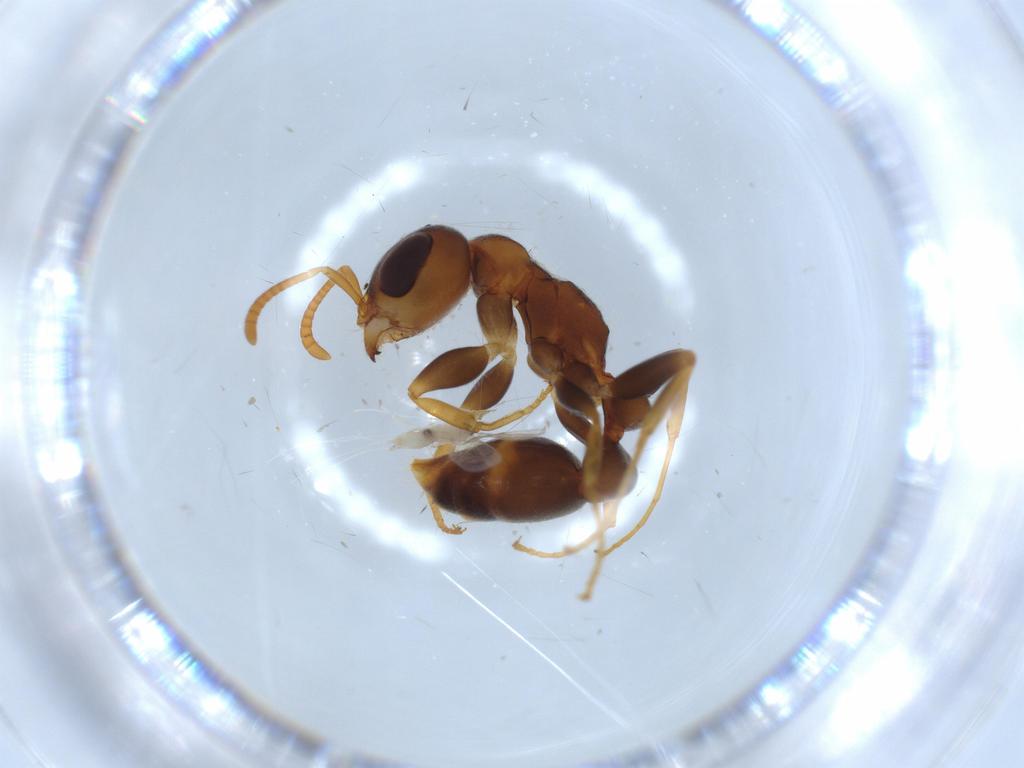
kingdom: Animalia
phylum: Arthropoda
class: Insecta
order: Hymenoptera
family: Formicidae
